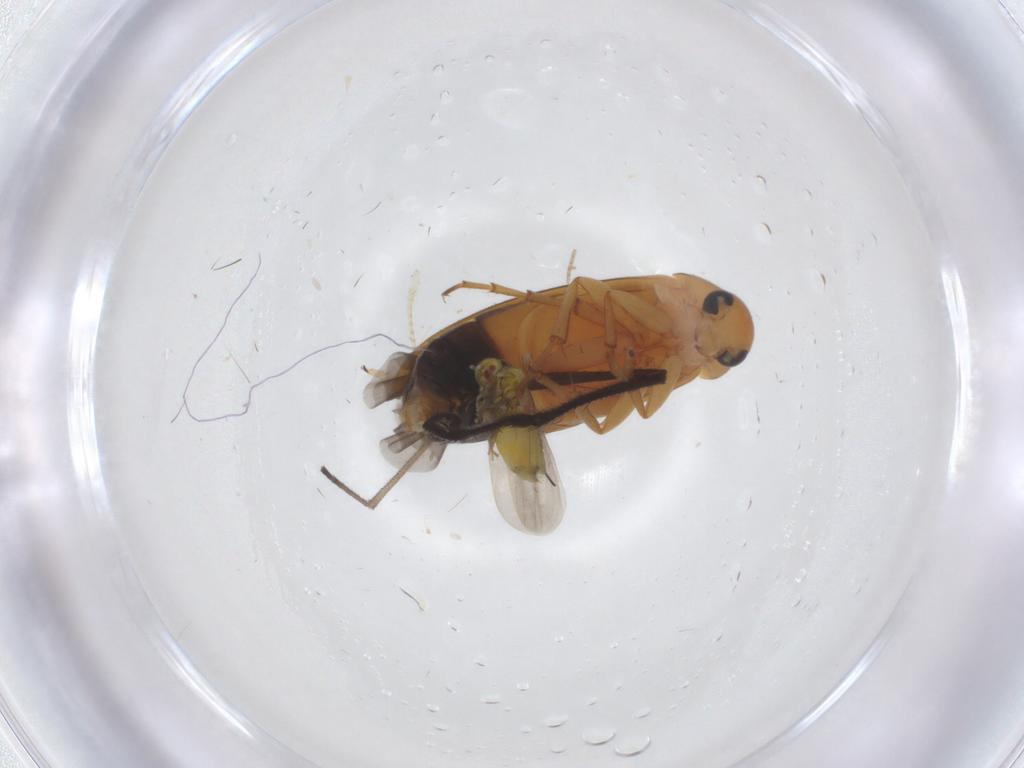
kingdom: Animalia
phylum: Arthropoda
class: Insecta
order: Coleoptera
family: Scraptiidae
